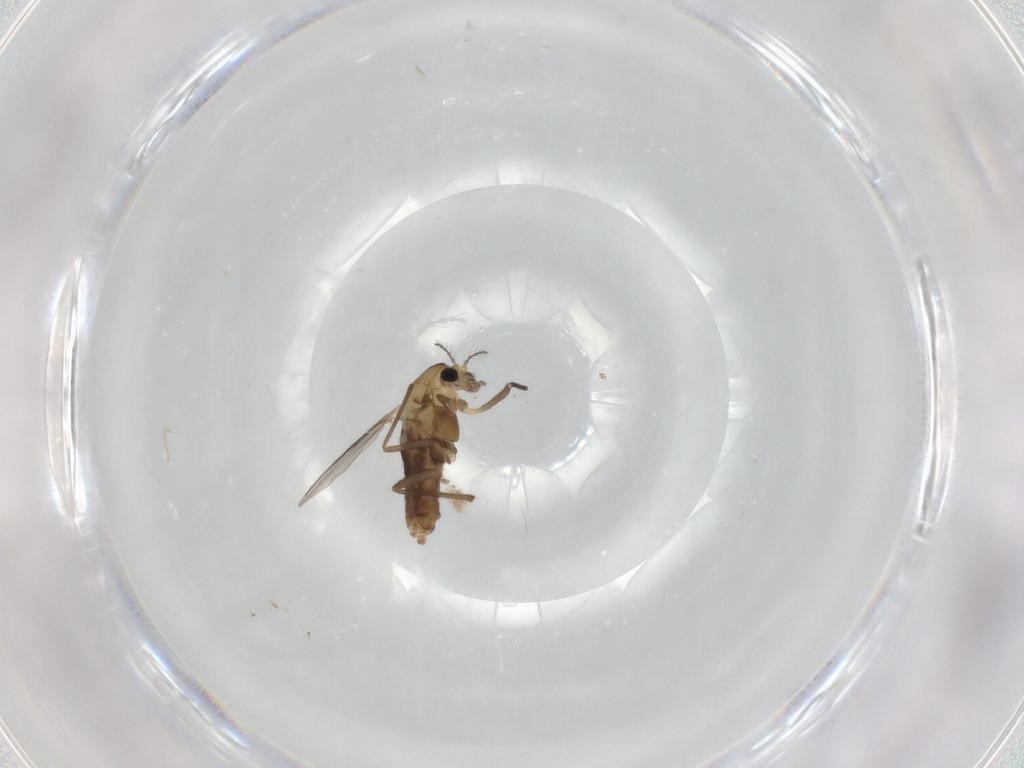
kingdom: Animalia
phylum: Arthropoda
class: Insecta
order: Diptera
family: Chironomidae
